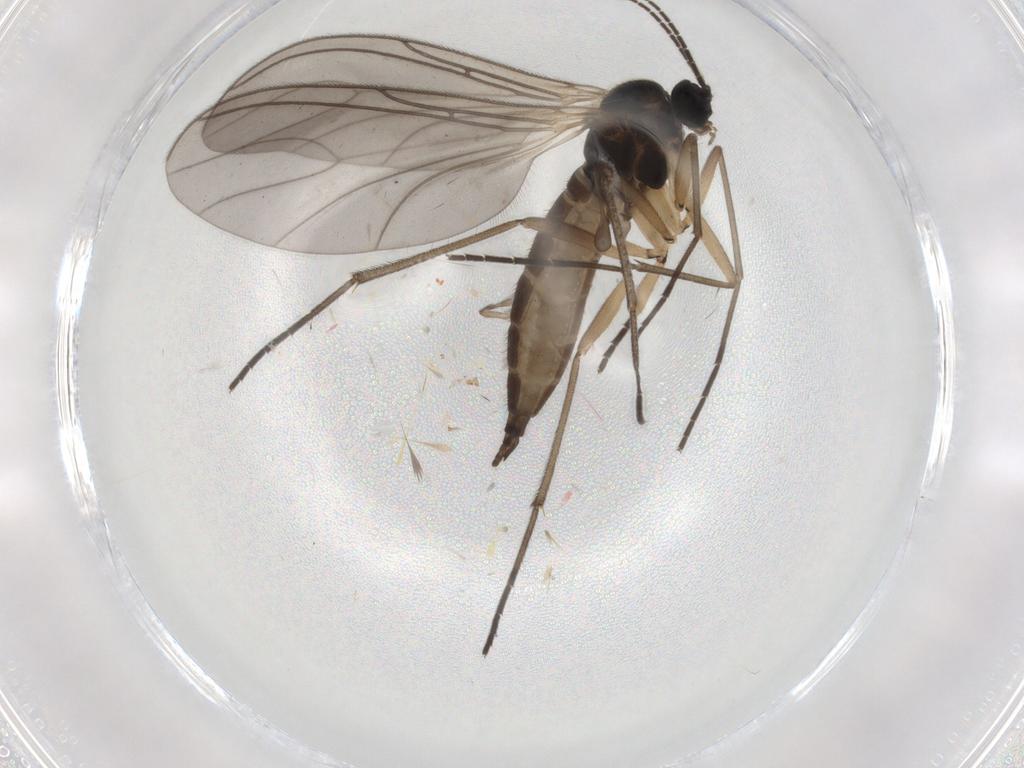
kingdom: Animalia
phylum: Arthropoda
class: Insecta
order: Diptera
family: Sciaridae
